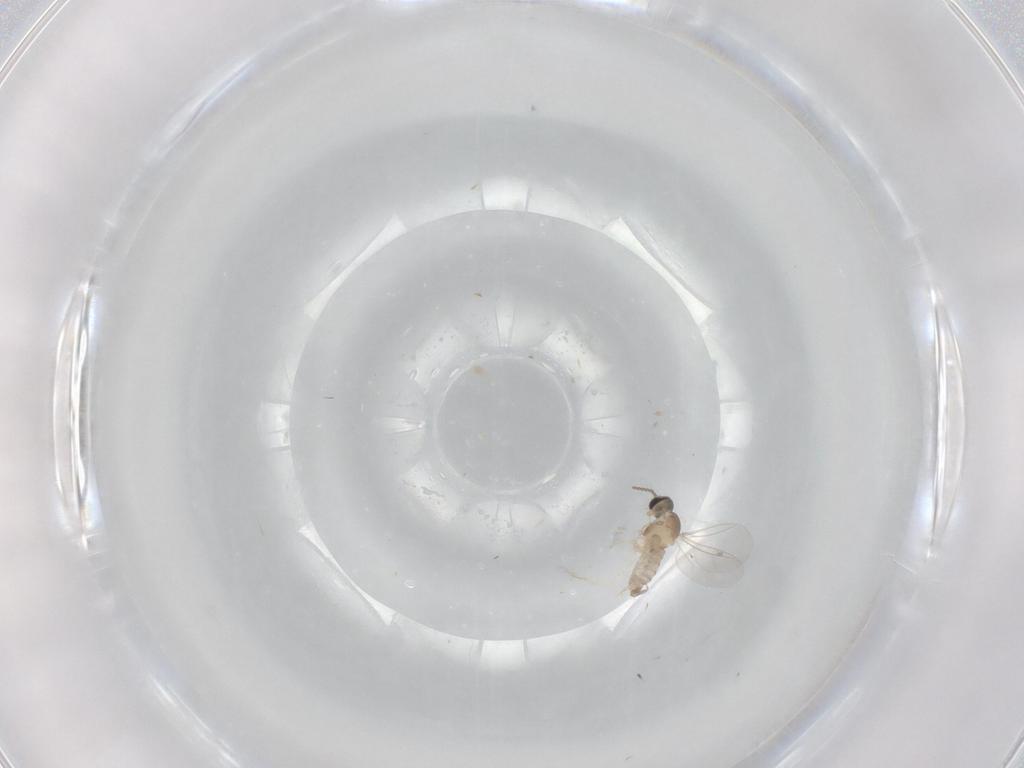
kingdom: Animalia
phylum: Arthropoda
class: Insecta
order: Diptera
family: Cecidomyiidae
